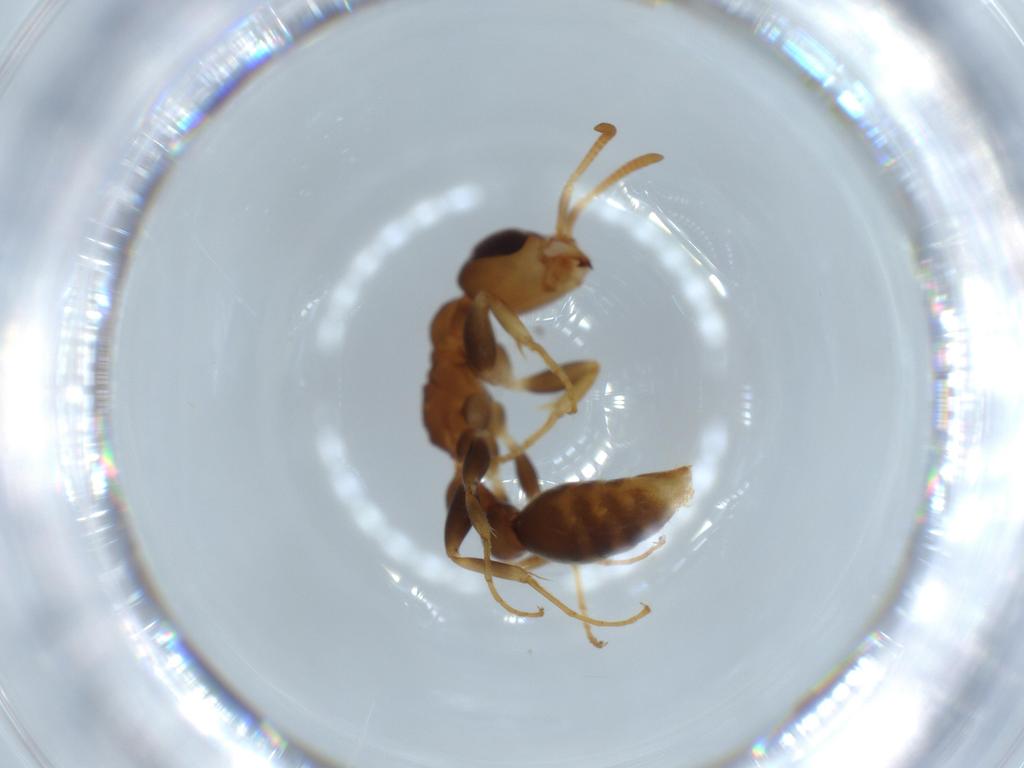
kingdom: Animalia
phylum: Arthropoda
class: Insecta
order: Hymenoptera
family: Formicidae
